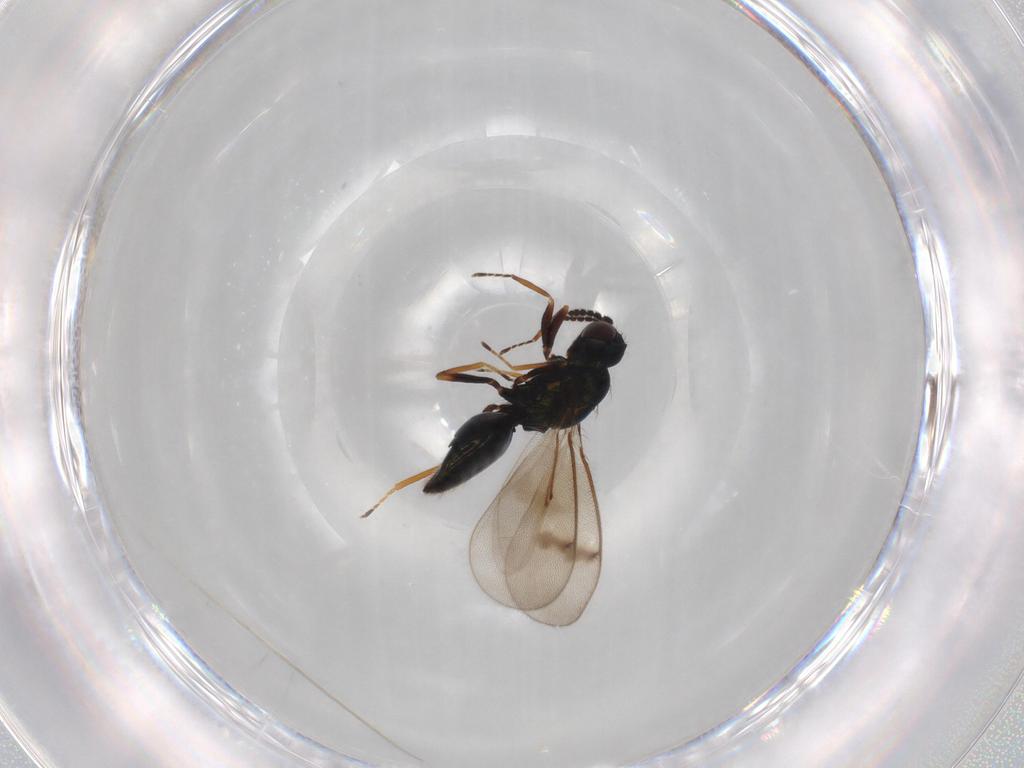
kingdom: Animalia
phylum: Arthropoda
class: Insecta
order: Hymenoptera
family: Eulophidae
